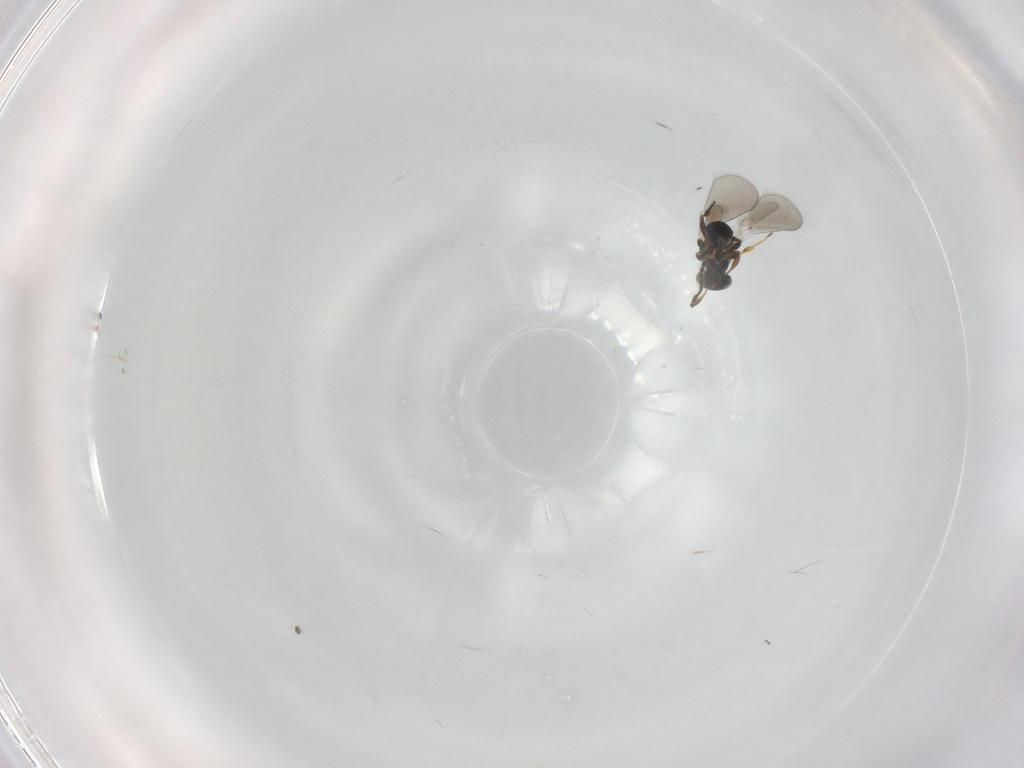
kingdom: Animalia
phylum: Arthropoda
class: Insecta
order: Hymenoptera
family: Platygastridae
